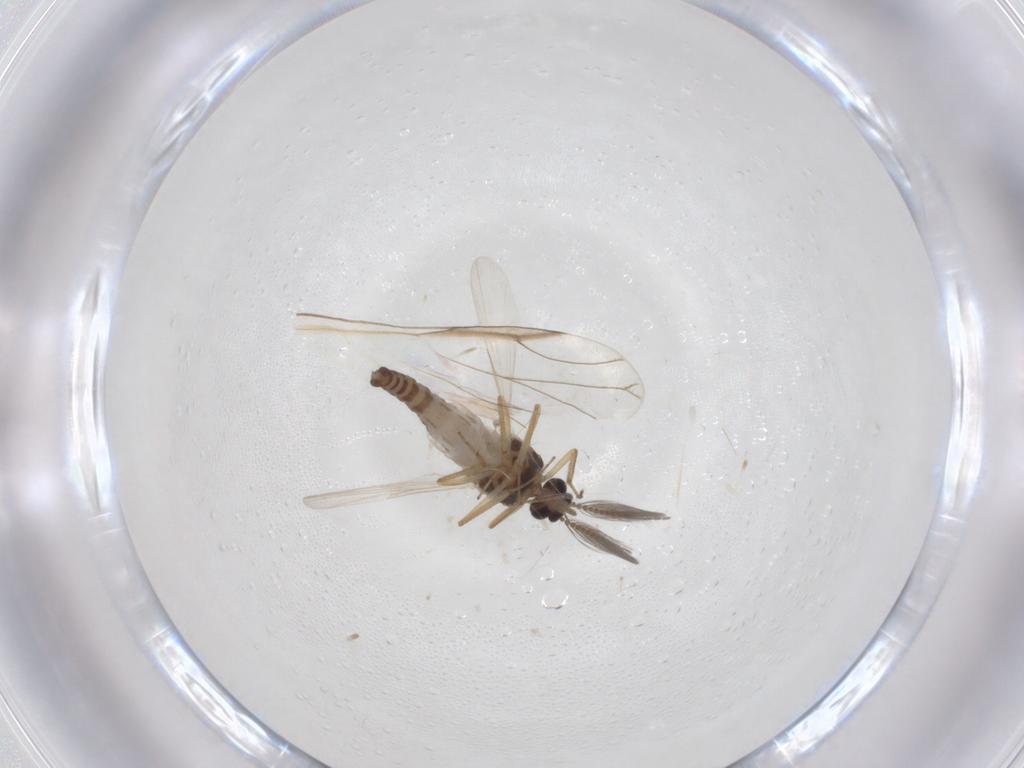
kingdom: Animalia
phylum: Arthropoda
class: Insecta
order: Diptera
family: Ceratopogonidae
